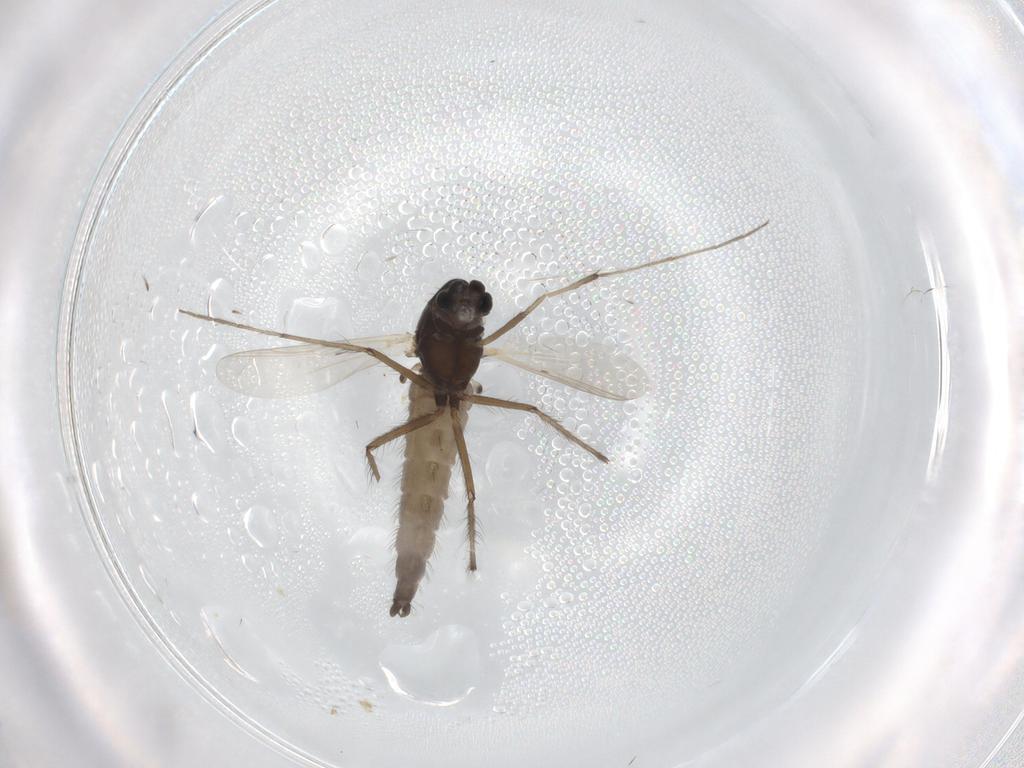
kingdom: Animalia
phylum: Arthropoda
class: Insecta
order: Diptera
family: Chironomidae
